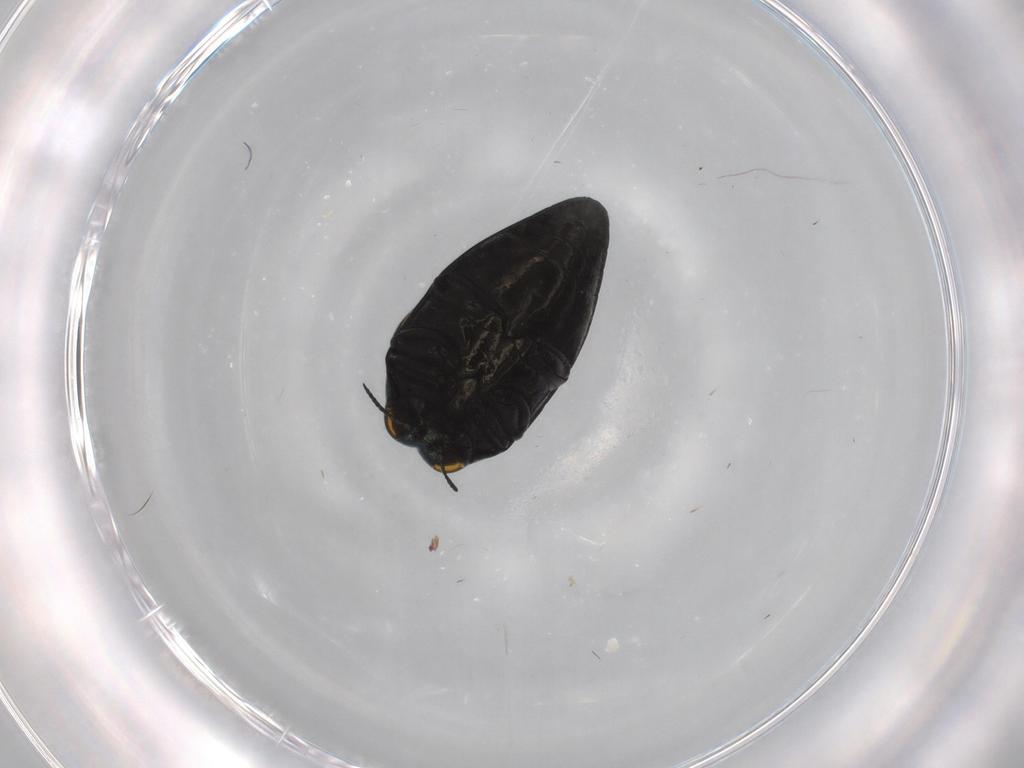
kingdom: Animalia
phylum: Arthropoda
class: Insecta
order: Coleoptera
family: Buprestidae
